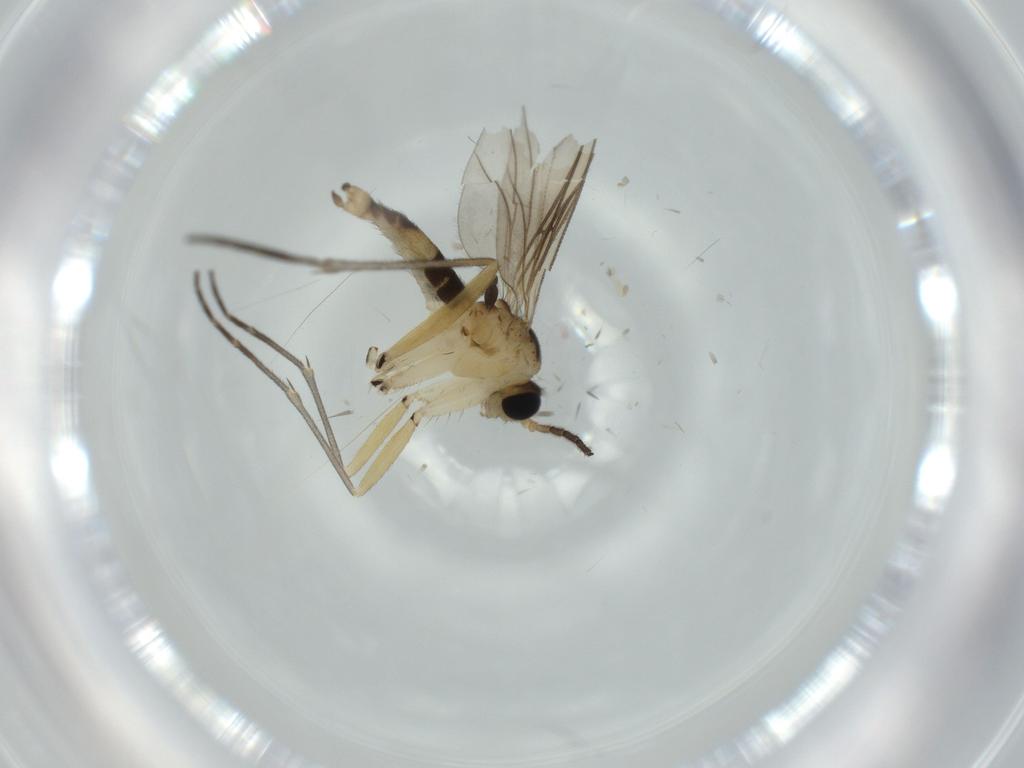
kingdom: Animalia
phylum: Arthropoda
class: Insecta
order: Diptera
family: Sciaridae
